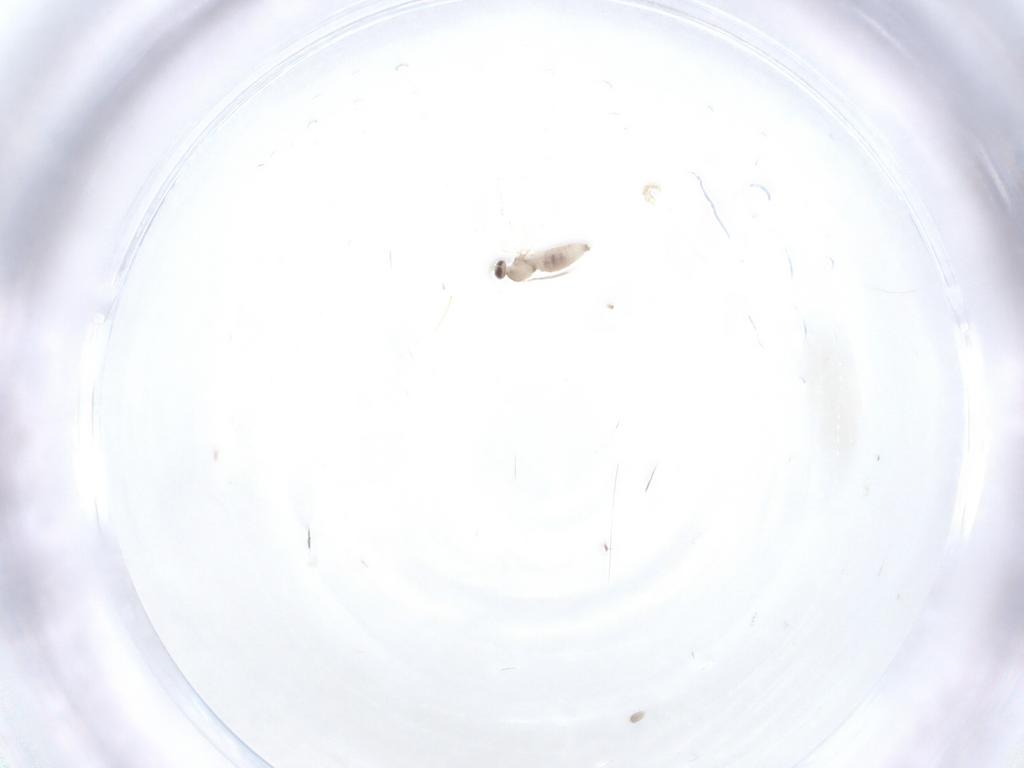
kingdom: Animalia
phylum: Arthropoda
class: Insecta
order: Diptera
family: Cecidomyiidae
